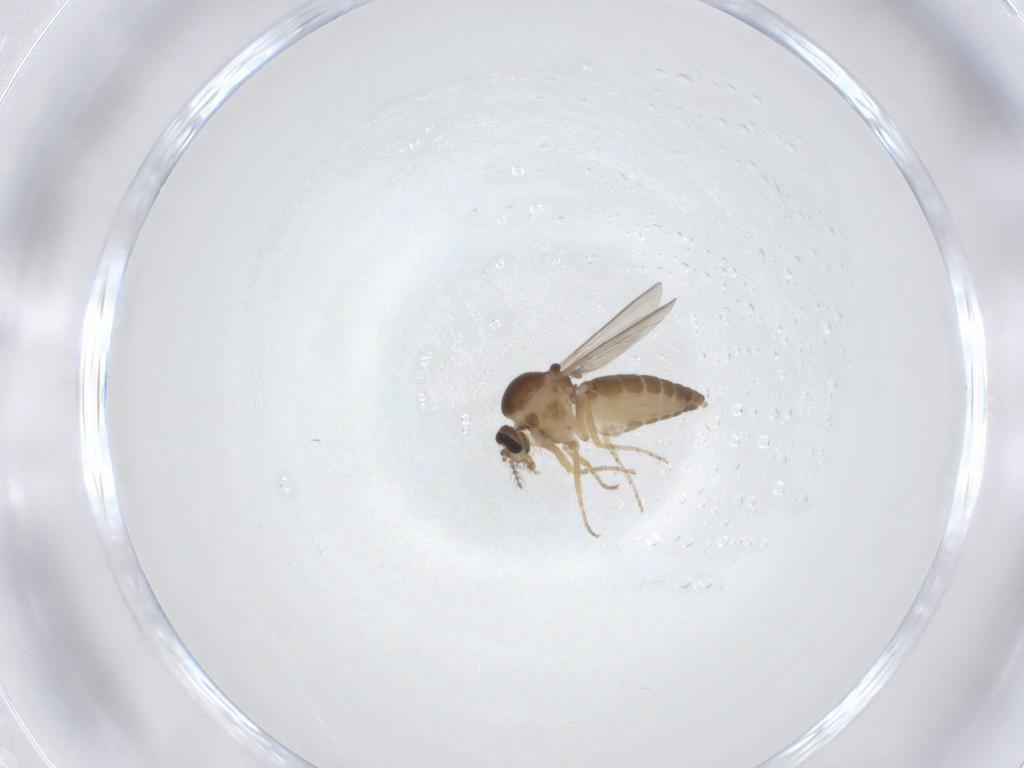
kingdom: Animalia
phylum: Arthropoda
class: Insecta
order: Diptera
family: Ceratopogonidae
